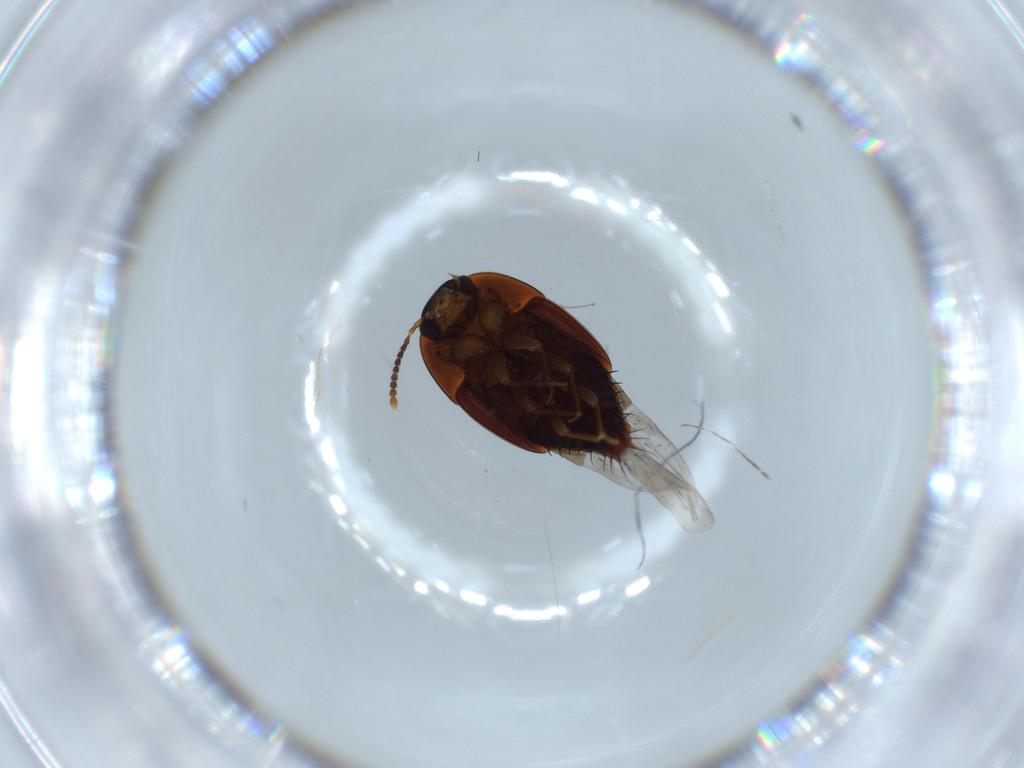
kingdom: Animalia
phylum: Arthropoda
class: Insecta
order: Coleoptera
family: Staphylinidae
